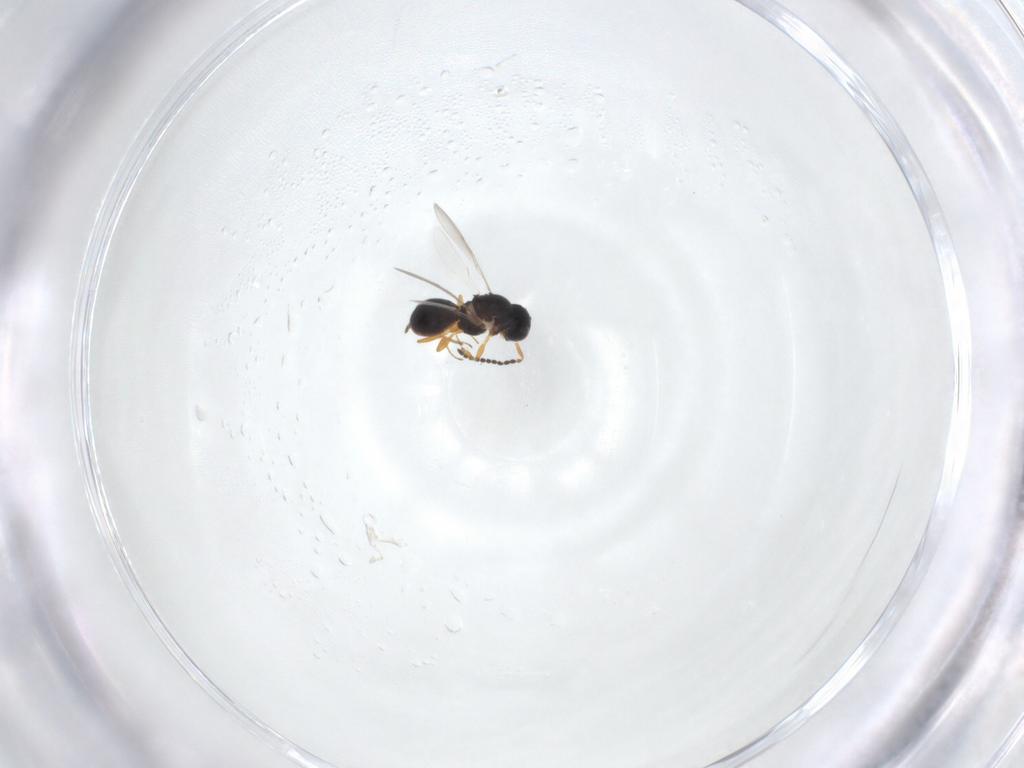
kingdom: Animalia
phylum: Arthropoda
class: Insecta
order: Hymenoptera
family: Scelionidae
